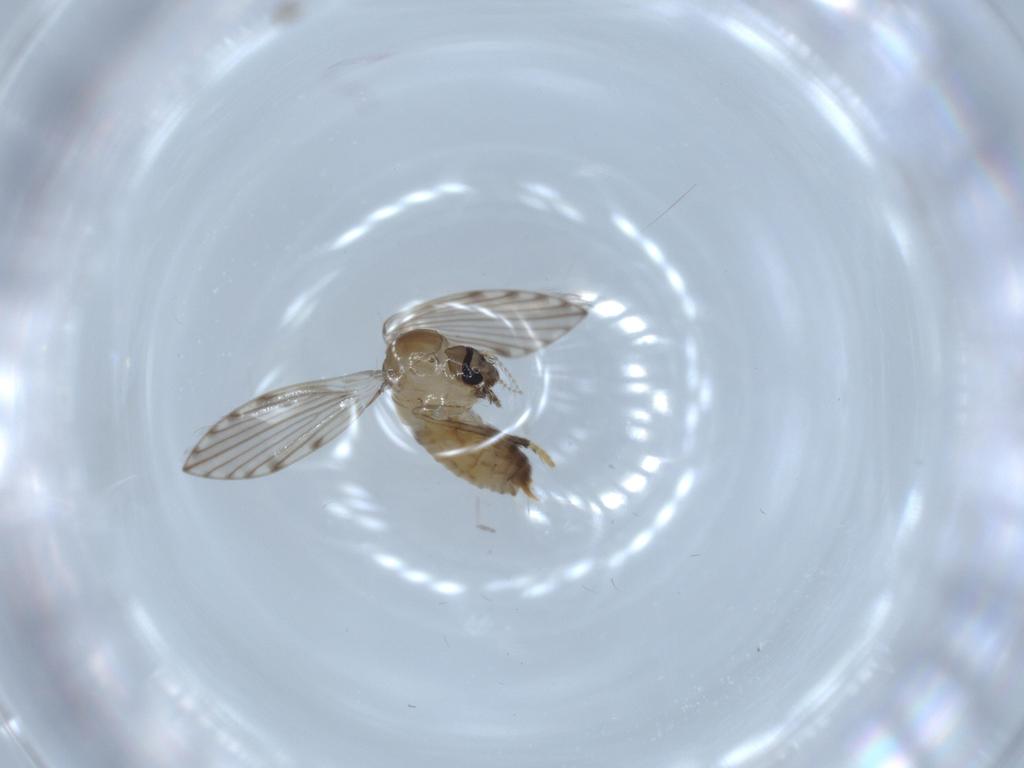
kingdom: Animalia
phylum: Arthropoda
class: Insecta
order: Diptera
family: Psychodidae
